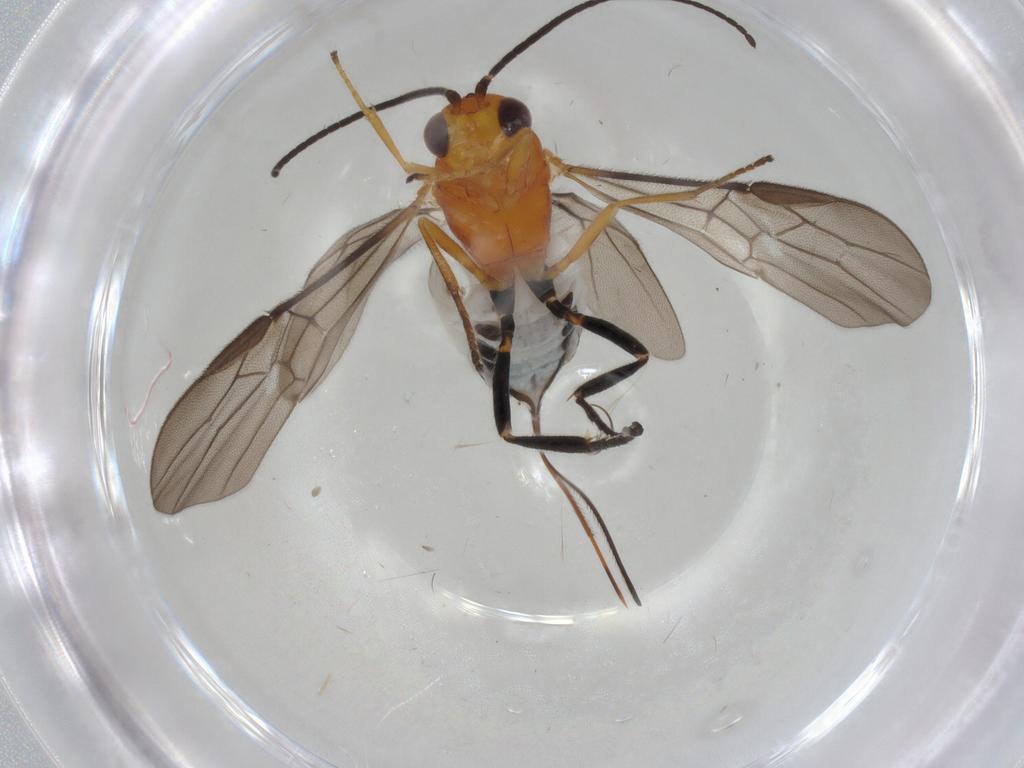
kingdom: Animalia
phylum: Arthropoda
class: Insecta
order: Hymenoptera
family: Braconidae
